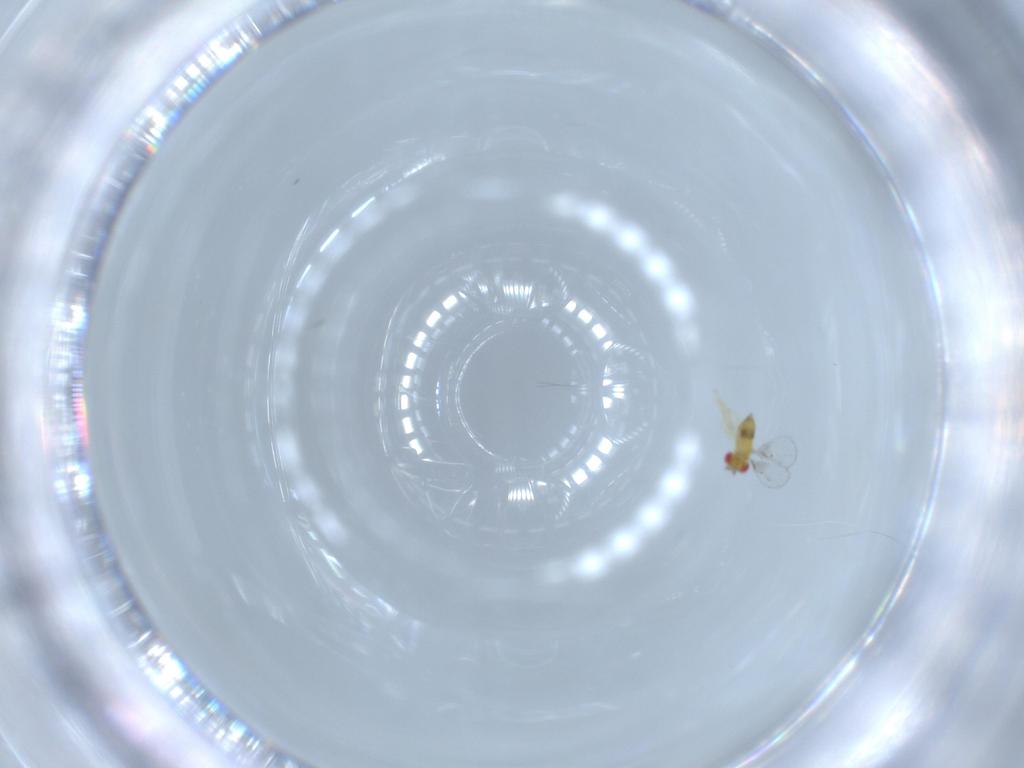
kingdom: Animalia
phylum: Arthropoda
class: Insecta
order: Hymenoptera
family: Trichogrammatidae
